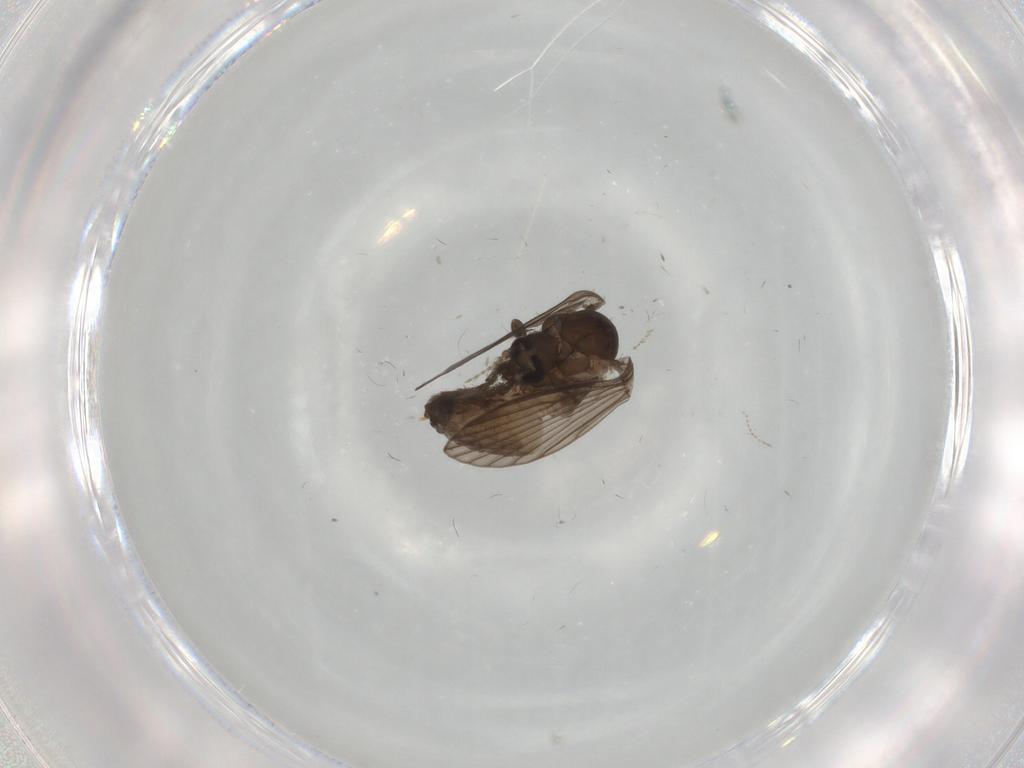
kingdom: Animalia
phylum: Arthropoda
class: Insecta
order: Diptera
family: Psychodidae
